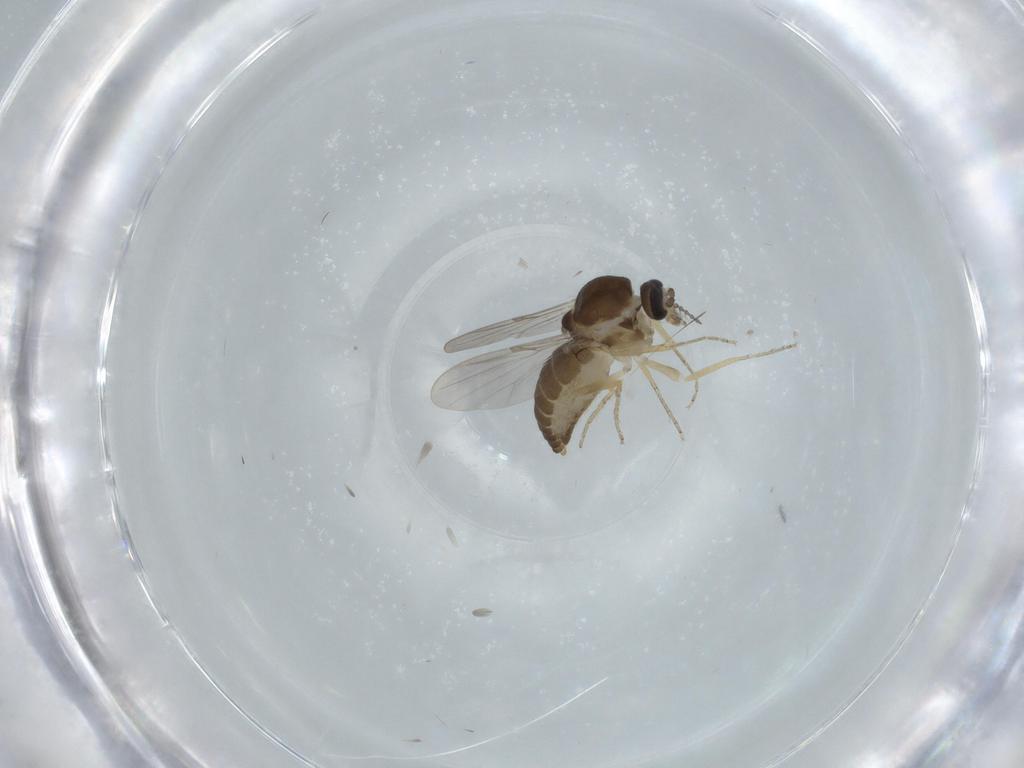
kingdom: Animalia
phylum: Arthropoda
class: Insecta
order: Diptera
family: Ceratopogonidae
